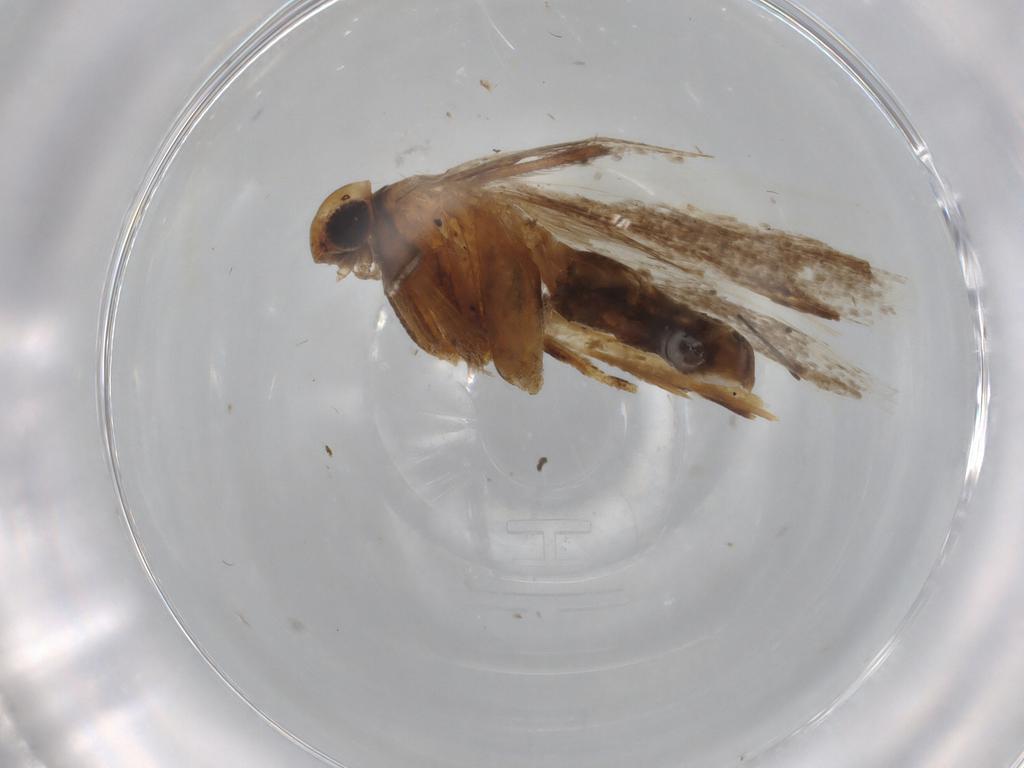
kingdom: Animalia
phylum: Arthropoda
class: Insecta
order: Lepidoptera
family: Gelechiidae
